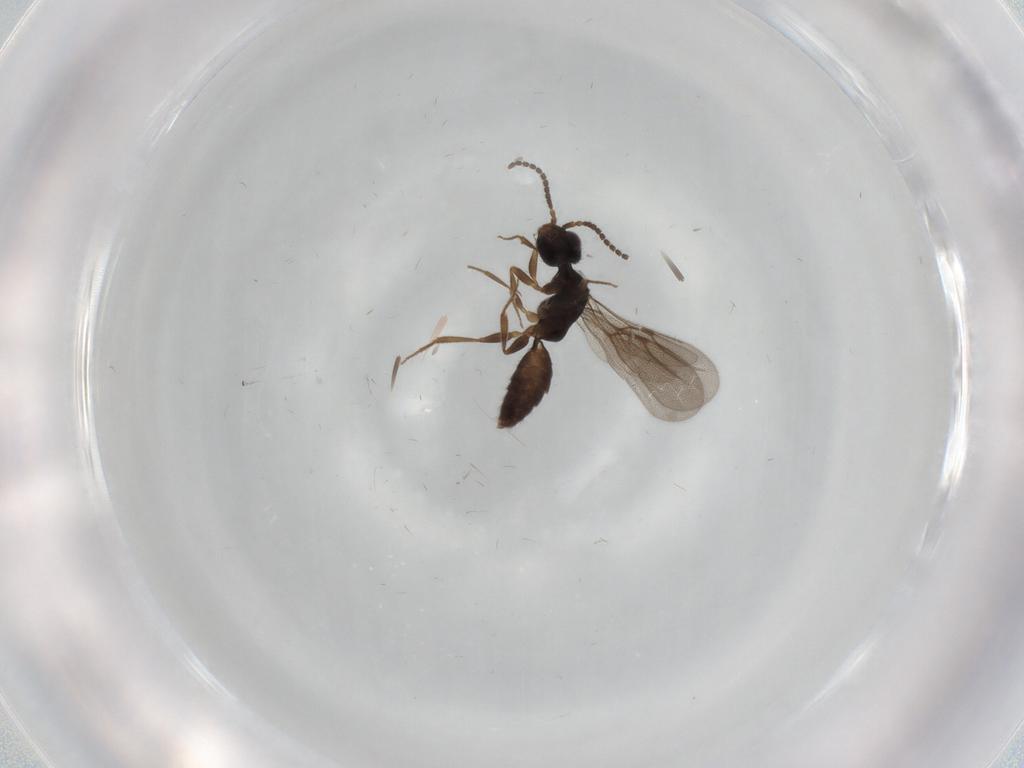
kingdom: Animalia
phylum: Arthropoda
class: Insecta
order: Hymenoptera
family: Bethylidae
